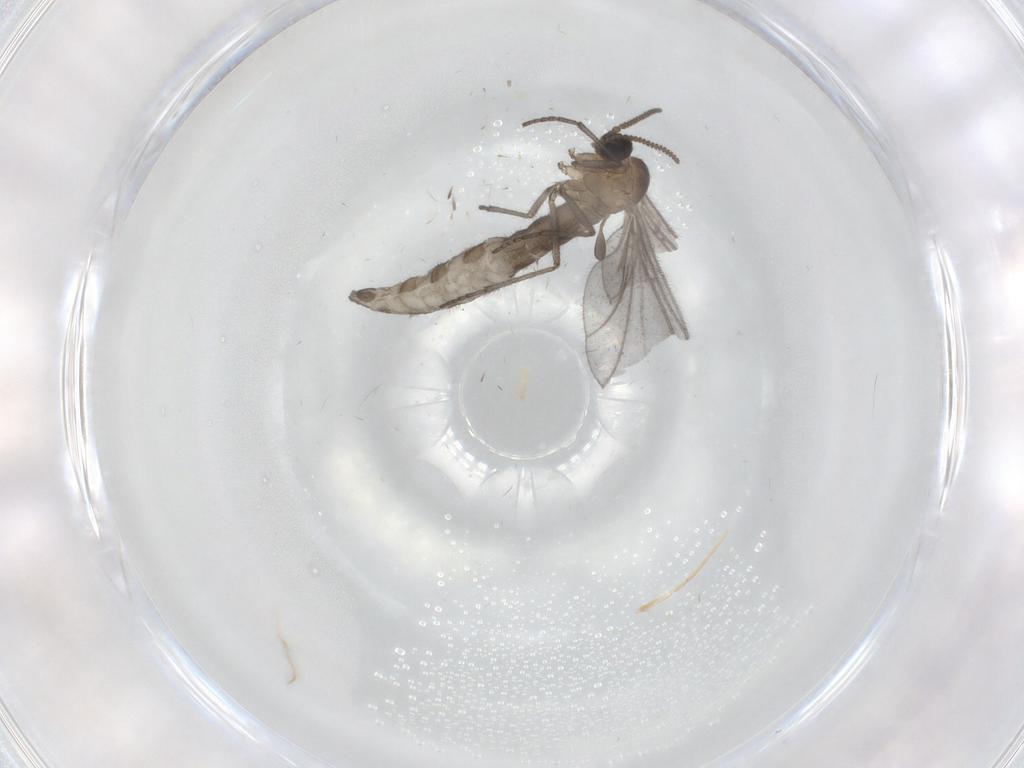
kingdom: Animalia
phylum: Arthropoda
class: Insecta
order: Diptera
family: Sciaridae
